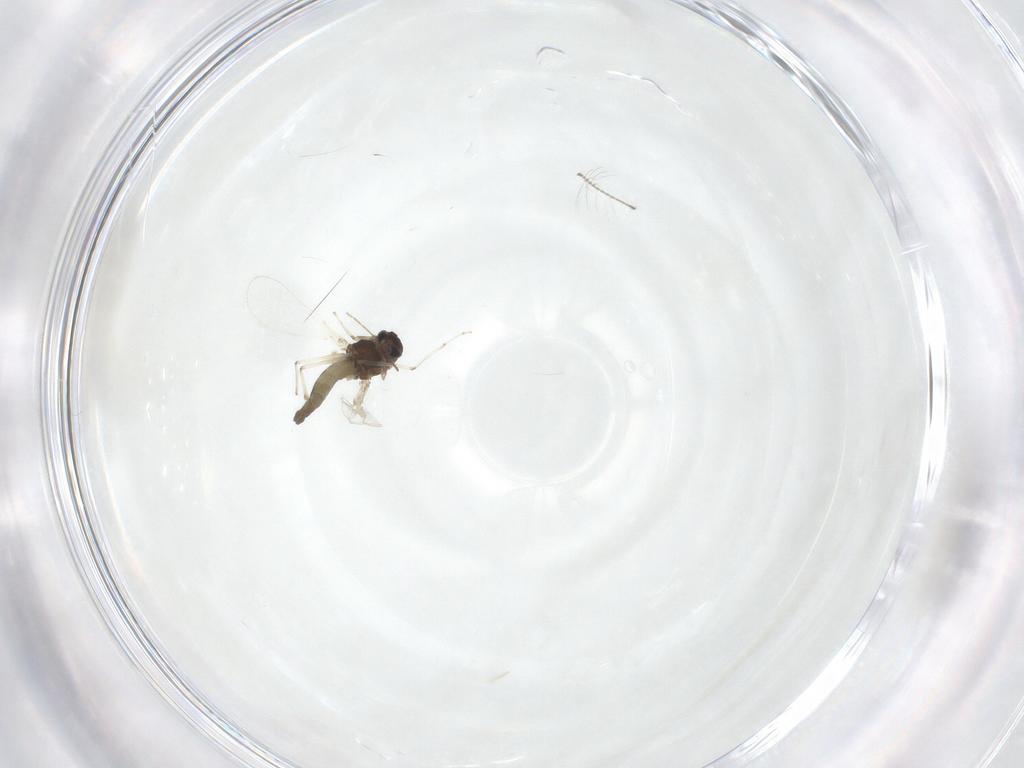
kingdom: Animalia
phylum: Arthropoda
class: Insecta
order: Diptera
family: Chironomidae
